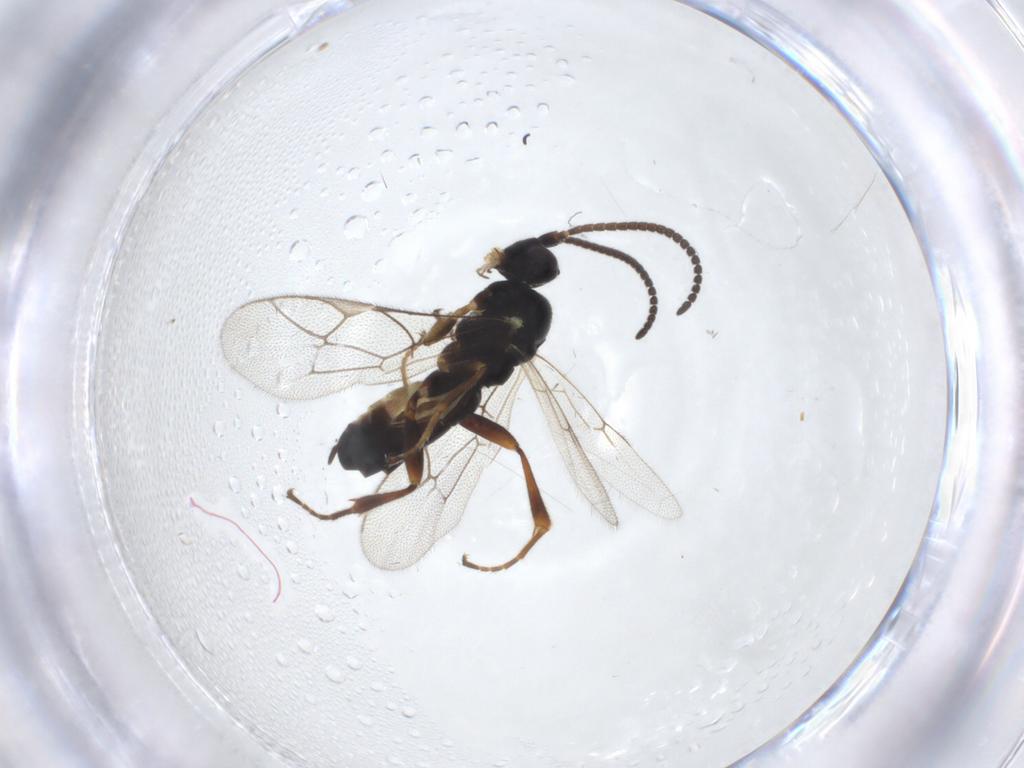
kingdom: Animalia
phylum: Arthropoda
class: Insecta
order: Hymenoptera
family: Ichneumonidae
